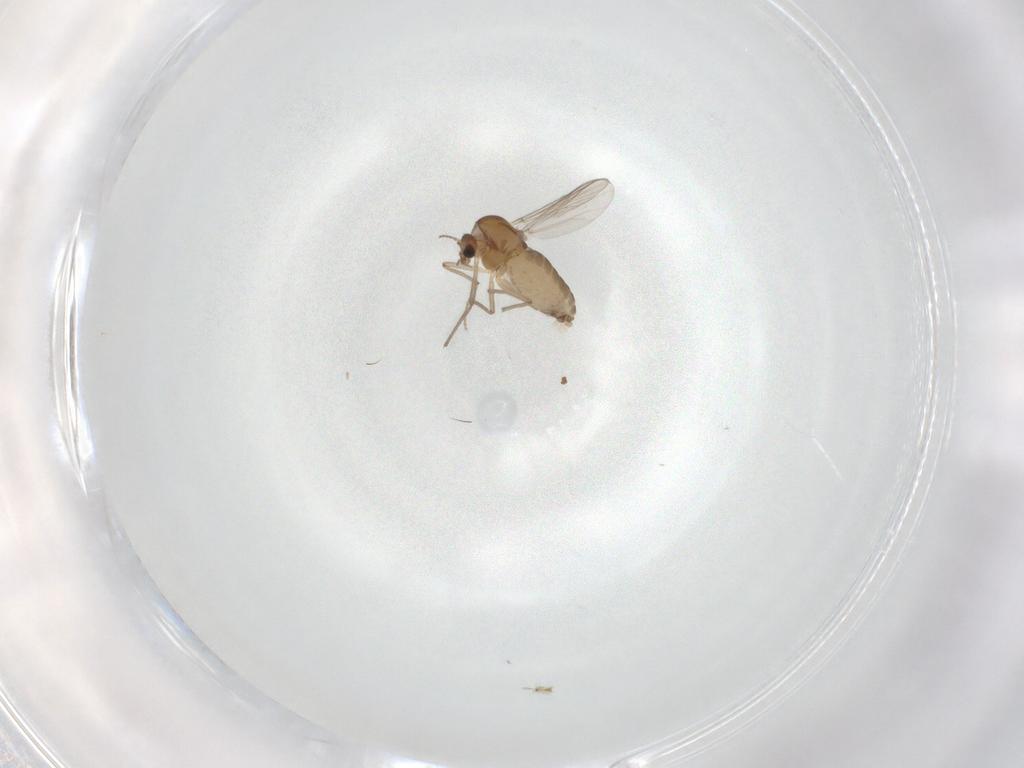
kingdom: Animalia
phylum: Arthropoda
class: Insecta
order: Diptera
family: Chironomidae
